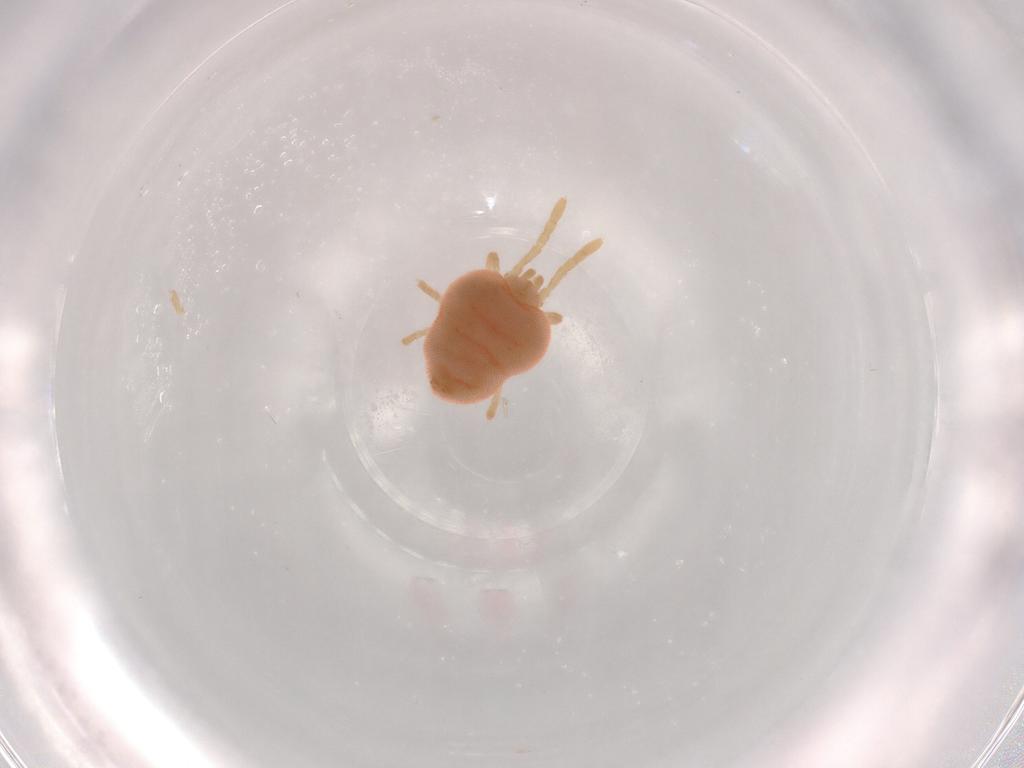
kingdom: Animalia
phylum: Arthropoda
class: Arachnida
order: Trombidiformes
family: Microtrombidiidae
